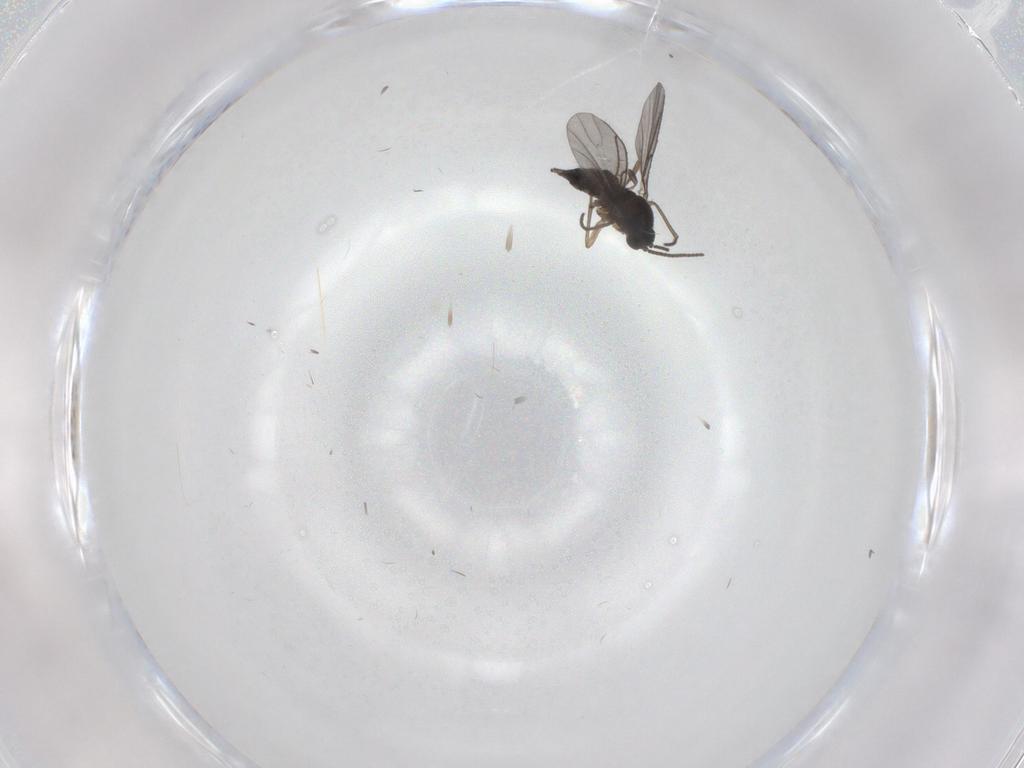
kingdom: Animalia
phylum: Arthropoda
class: Insecta
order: Diptera
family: Sciaridae
